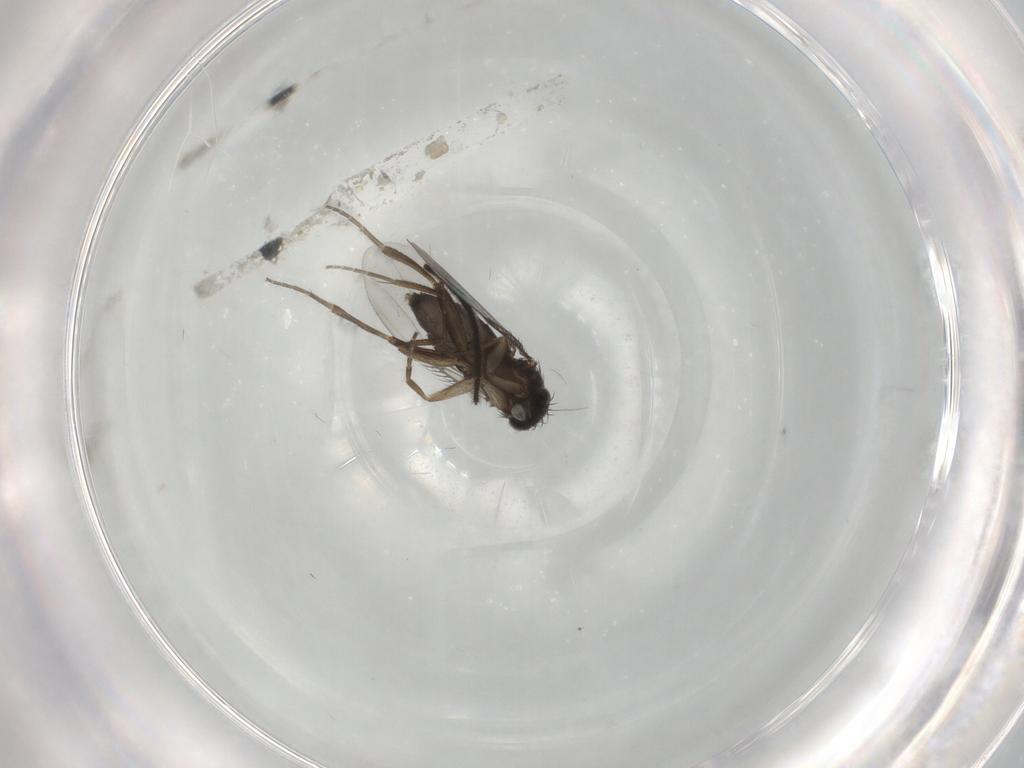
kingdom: Animalia
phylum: Arthropoda
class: Insecta
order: Diptera
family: Phoridae
